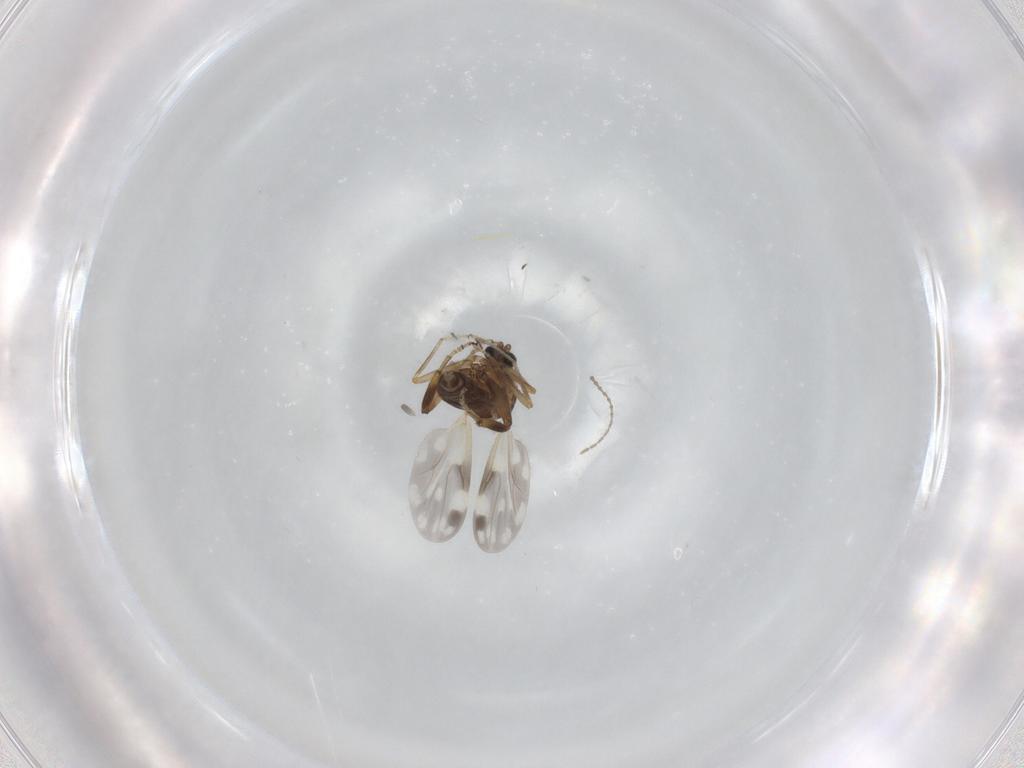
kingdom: Animalia
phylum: Arthropoda
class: Insecta
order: Diptera
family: Ceratopogonidae
